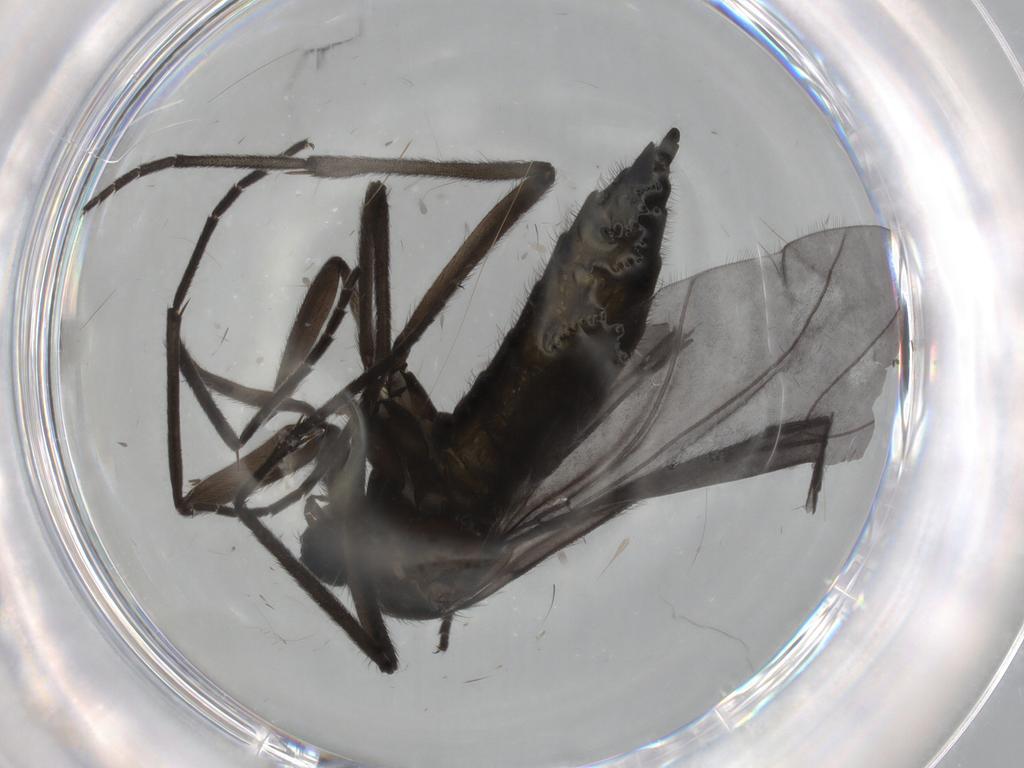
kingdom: Animalia
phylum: Arthropoda
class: Insecta
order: Diptera
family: Sciaridae
